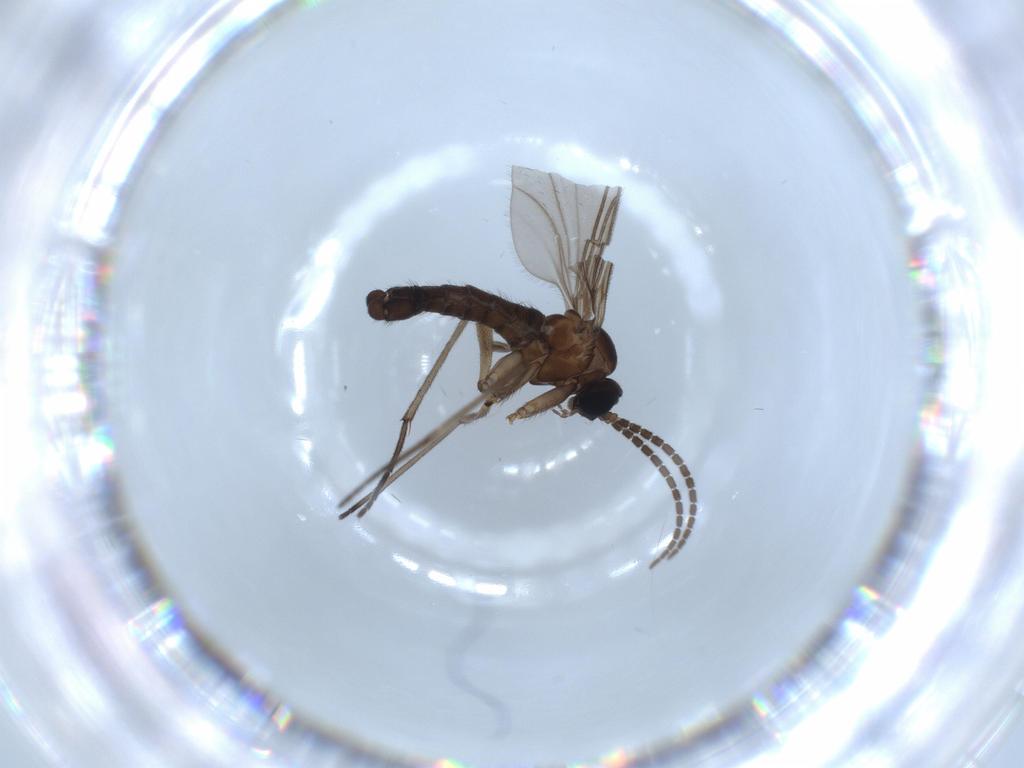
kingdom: Animalia
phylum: Arthropoda
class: Insecta
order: Diptera
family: Sciaridae
